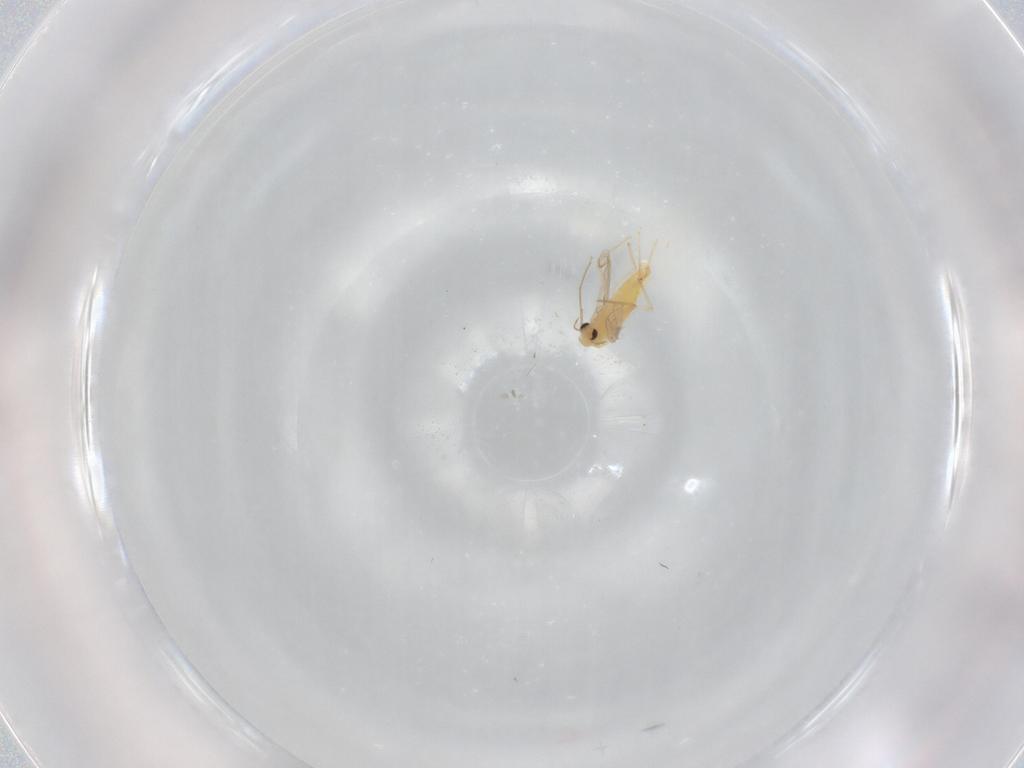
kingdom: Animalia
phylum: Arthropoda
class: Insecta
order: Diptera
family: Chironomidae
